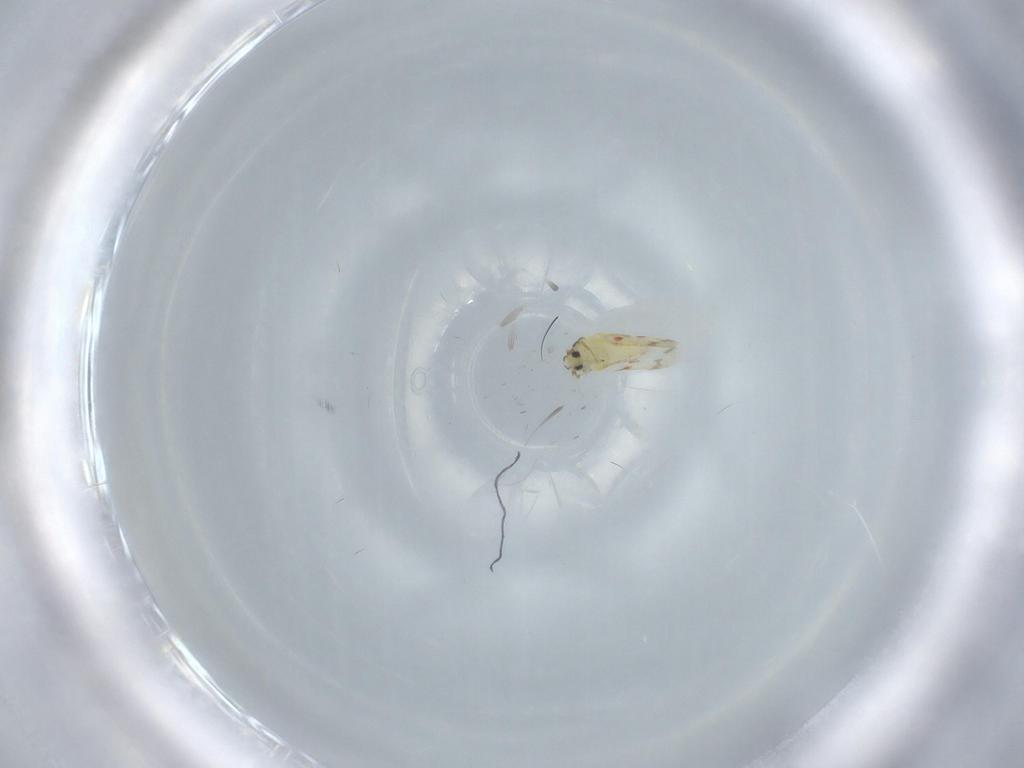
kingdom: Animalia
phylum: Arthropoda
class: Insecta
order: Hemiptera
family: Aleyrodidae
